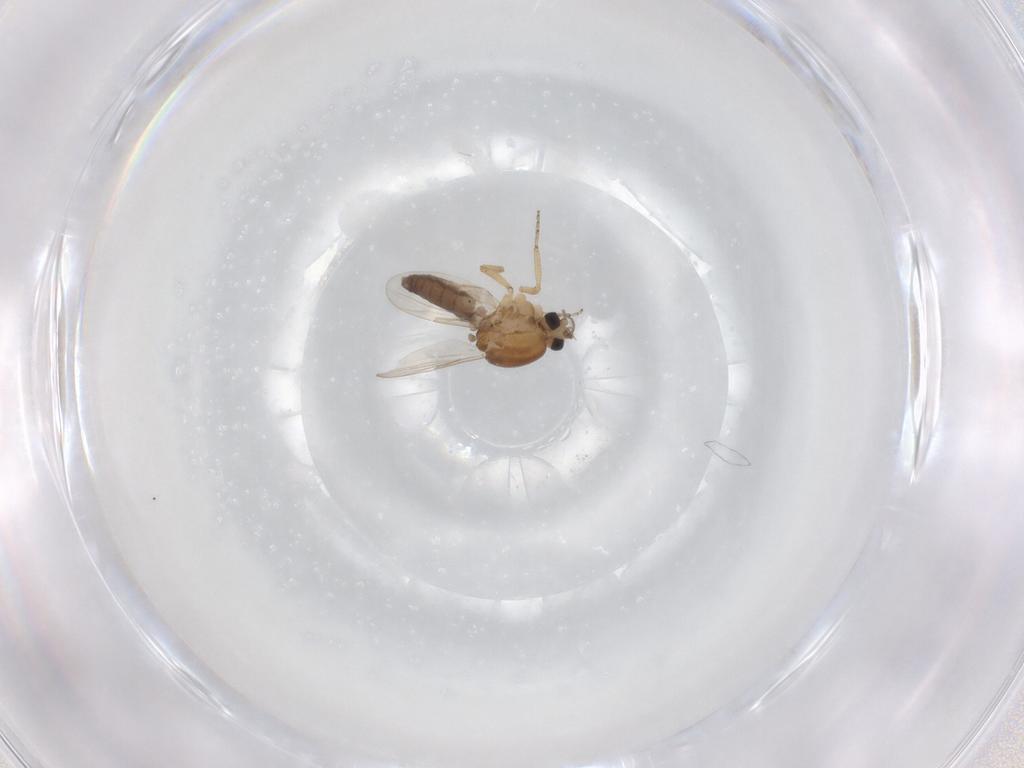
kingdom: Animalia
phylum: Arthropoda
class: Insecta
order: Diptera
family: Ceratopogonidae
